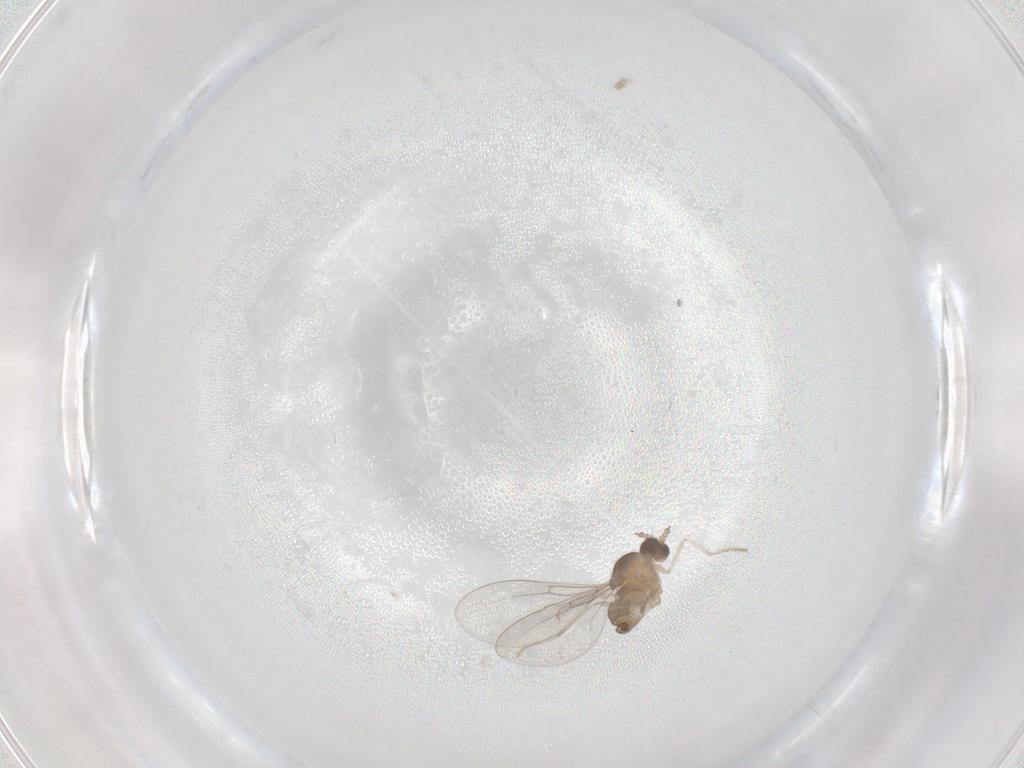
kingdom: Animalia
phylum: Arthropoda
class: Insecta
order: Diptera
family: Cecidomyiidae
